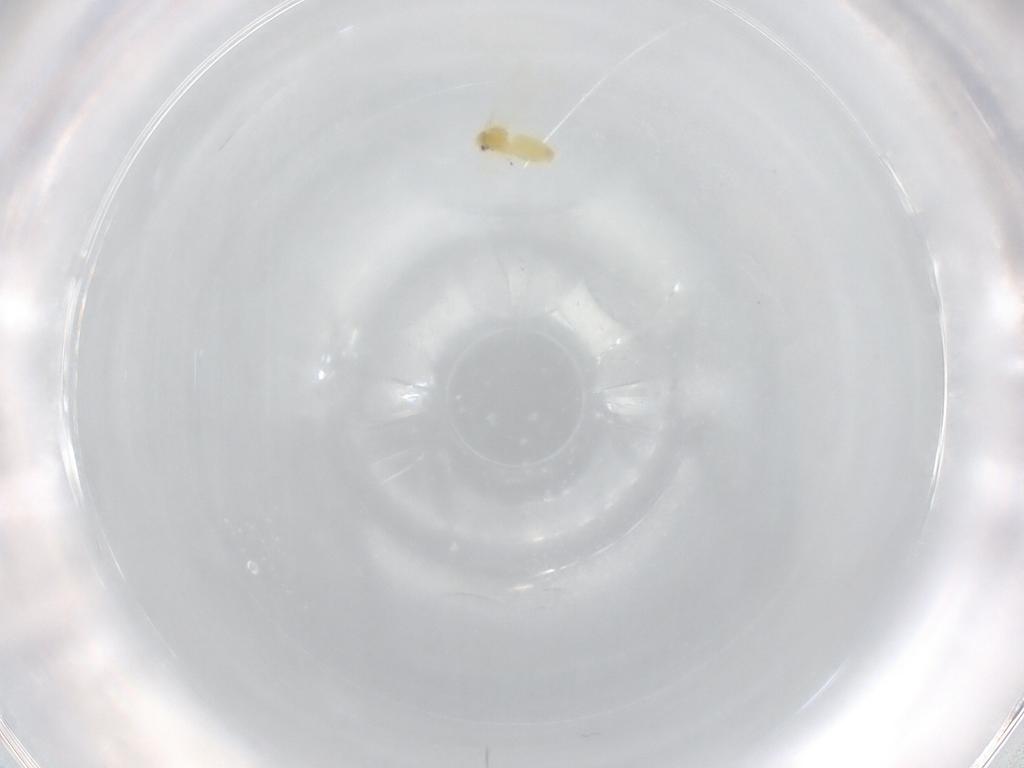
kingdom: Animalia
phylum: Arthropoda
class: Insecta
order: Hemiptera
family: Aleyrodidae
